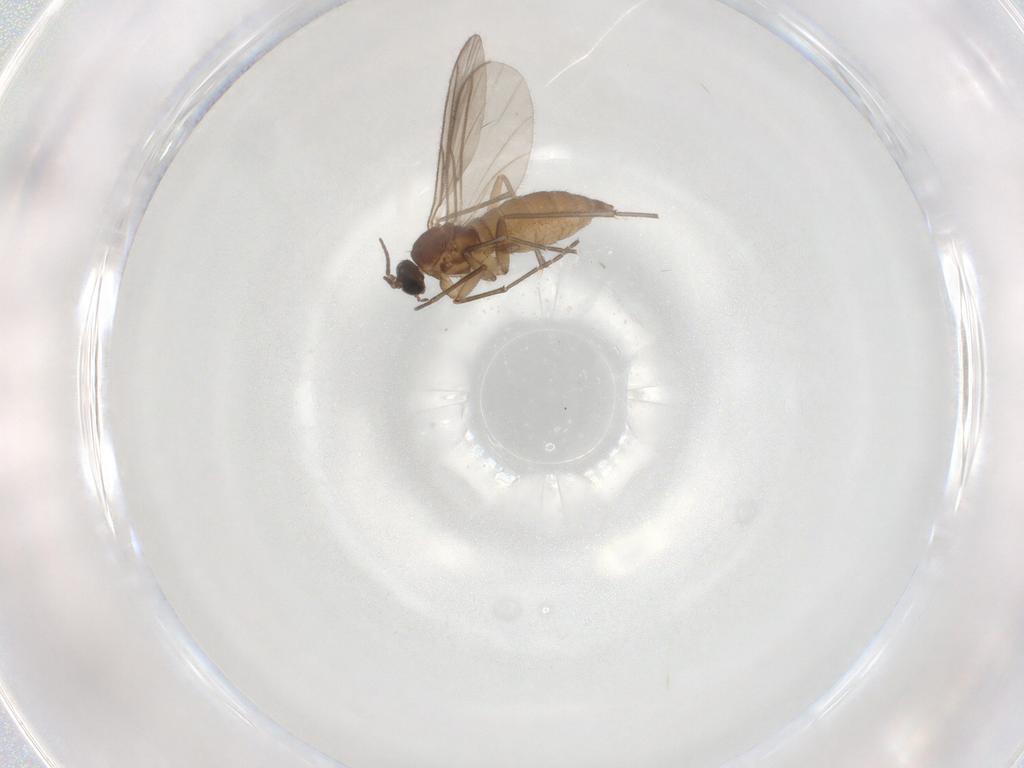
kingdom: Animalia
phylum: Arthropoda
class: Insecta
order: Diptera
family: Sciaridae
